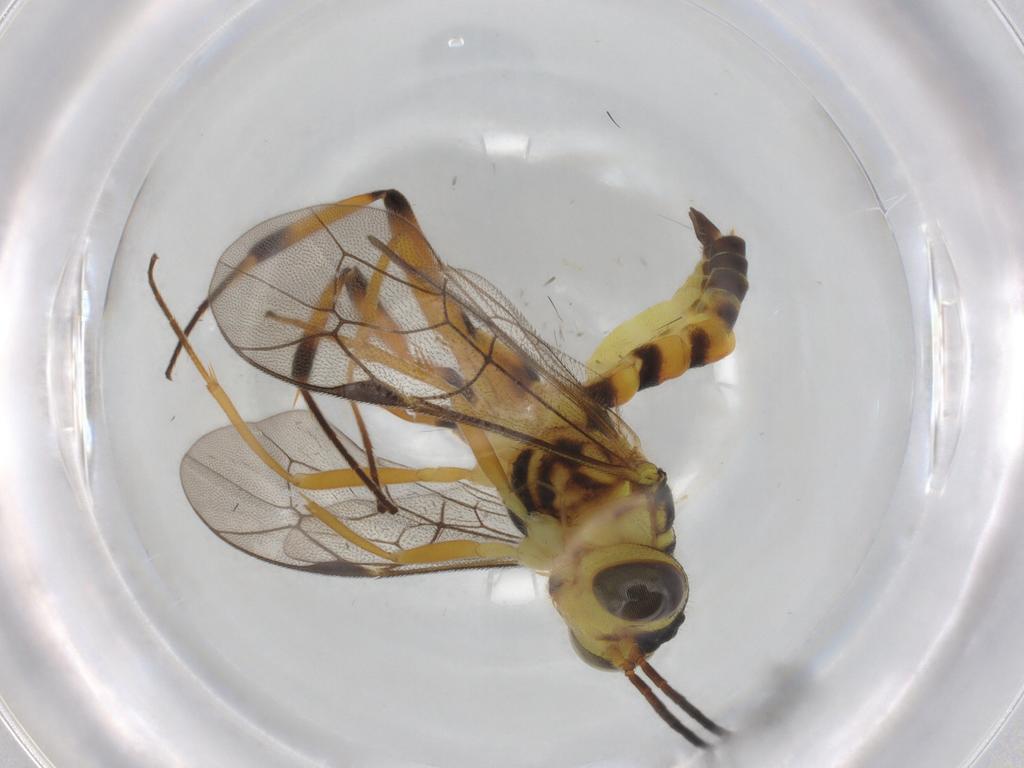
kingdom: Animalia
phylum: Arthropoda
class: Insecta
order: Hymenoptera
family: Ichneumonidae
